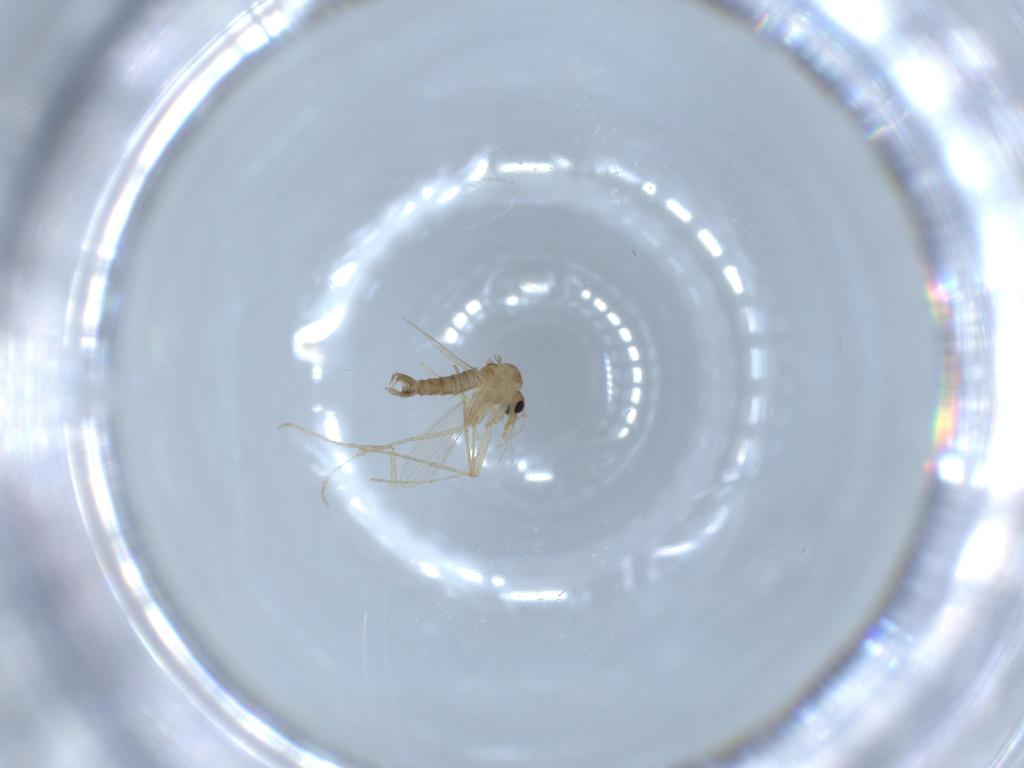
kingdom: Animalia
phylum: Arthropoda
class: Insecta
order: Diptera
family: Psychodidae
